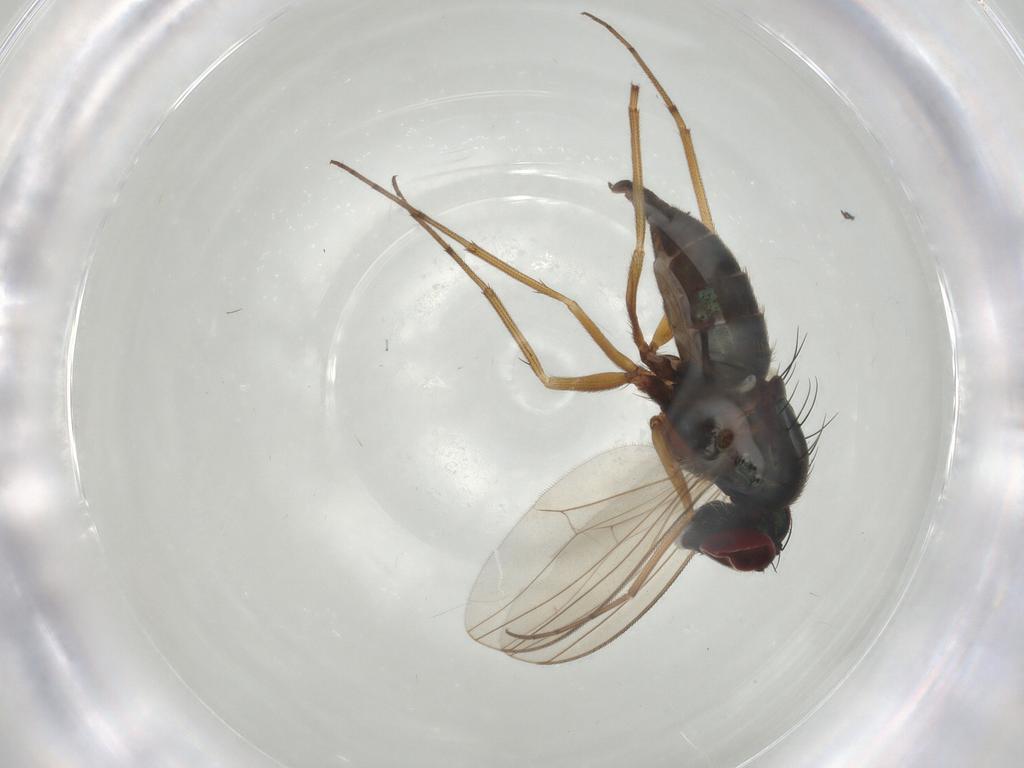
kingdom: Animalia
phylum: Arthropoda
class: Insecta
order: Diptera
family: Dolichopodidae
